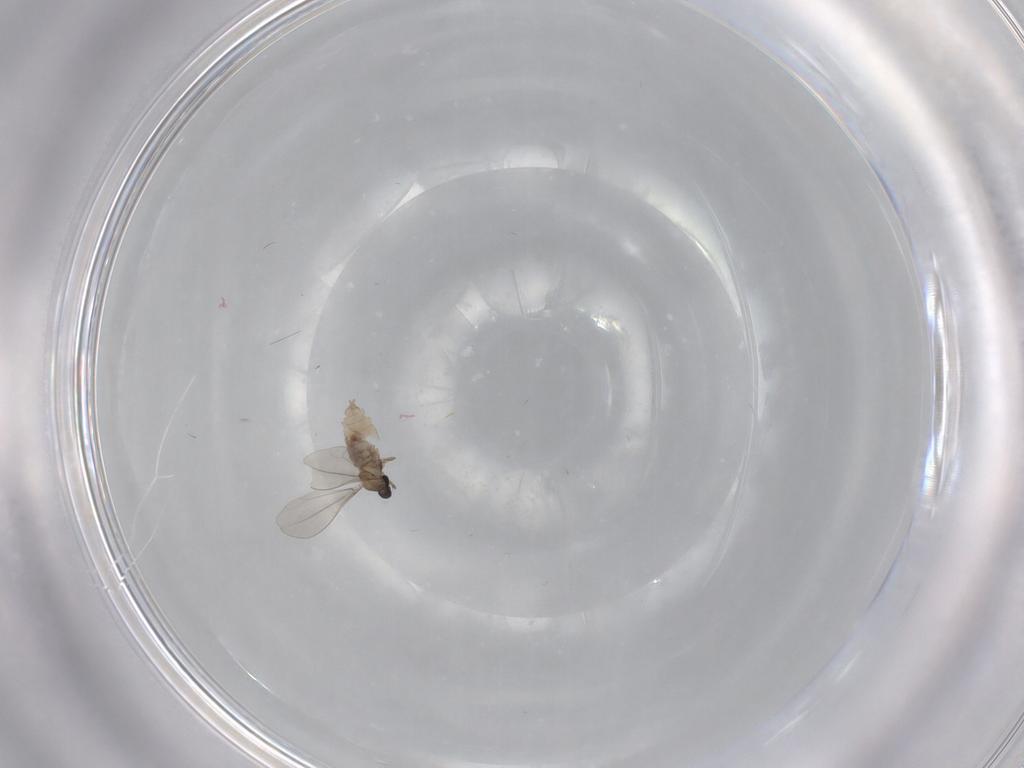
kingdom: Animalia
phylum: Arthropoda
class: Insecta
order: Diptera
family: Cecidomyiidae
